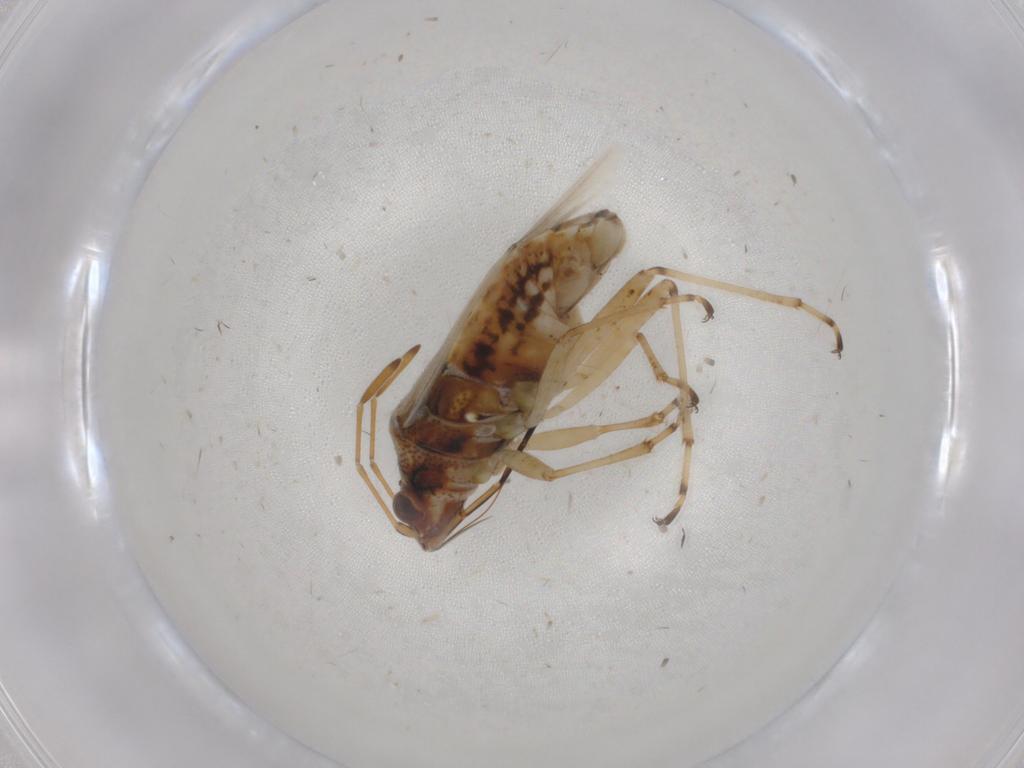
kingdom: Animalia
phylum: Arthropoda
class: Insecta
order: Hemiptera
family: Lygaeidae
